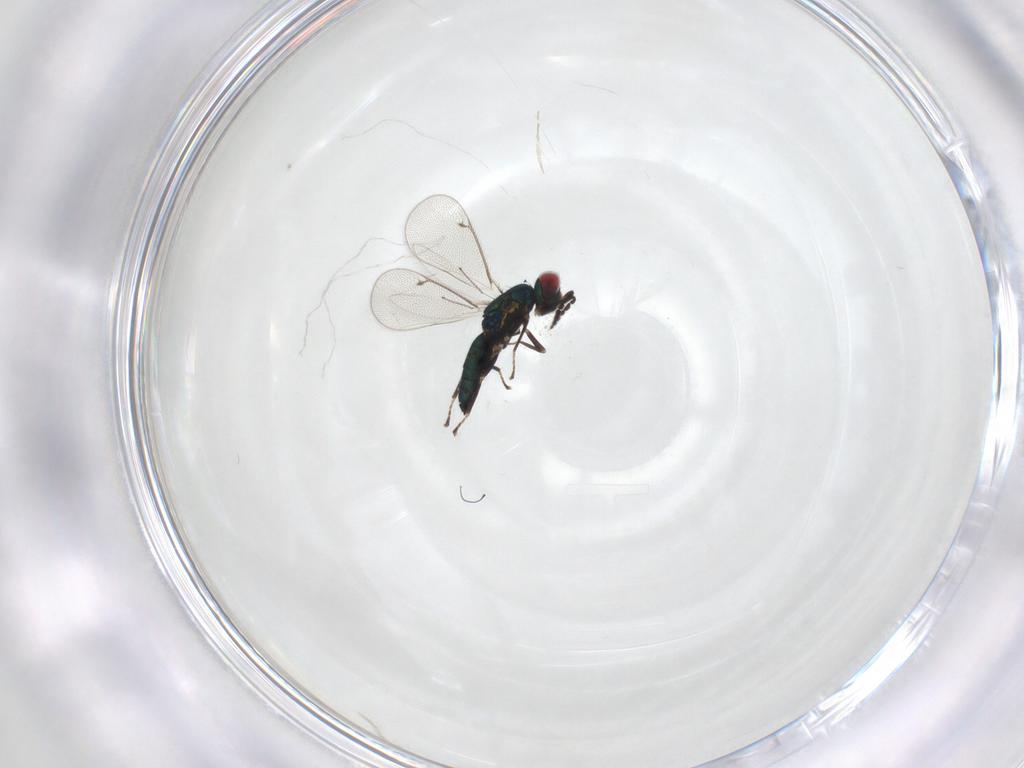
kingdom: Animalia
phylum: Arthropoda
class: Insecta
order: Hymenoptera
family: Eulophidae
